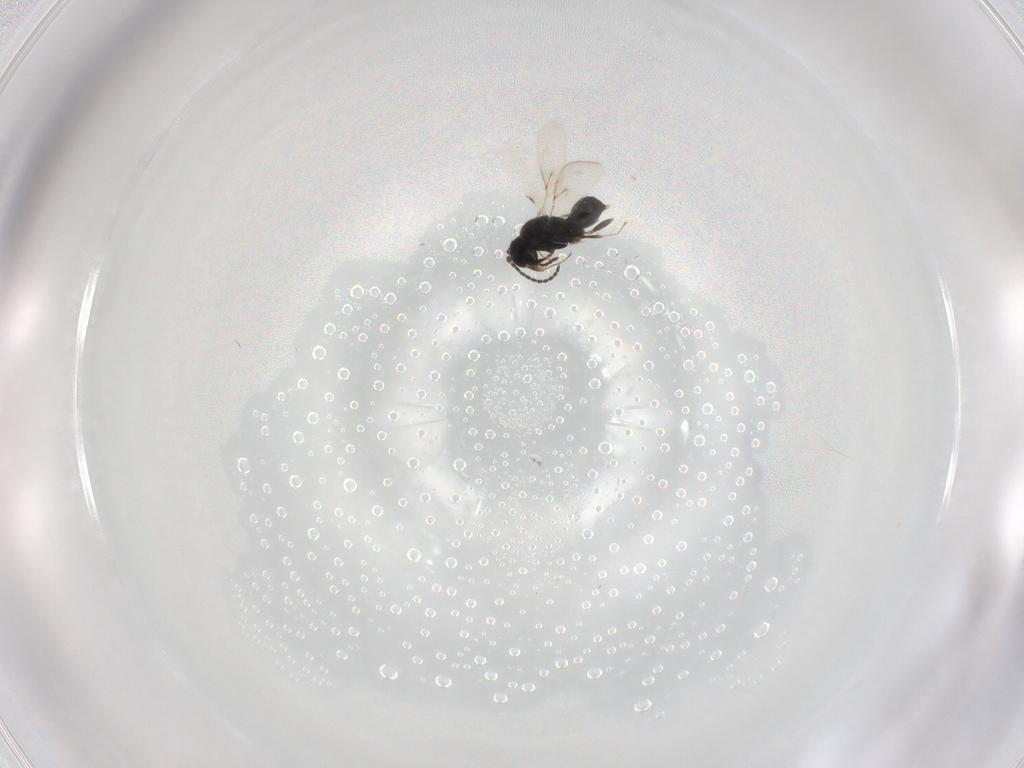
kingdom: Animalia
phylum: Arthropoda
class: Insecta
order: Hymenoptera
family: Scelionidae
